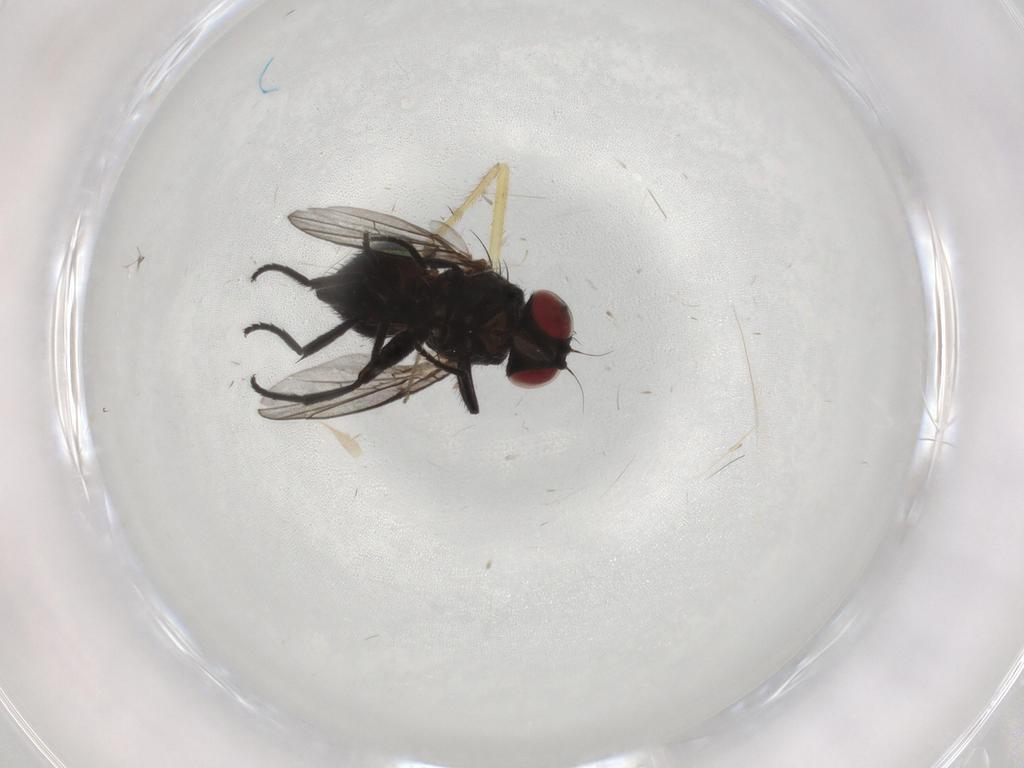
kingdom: Animalia
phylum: Arthropoda
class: Insecta
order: Diptera
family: Cecidomyiidae
